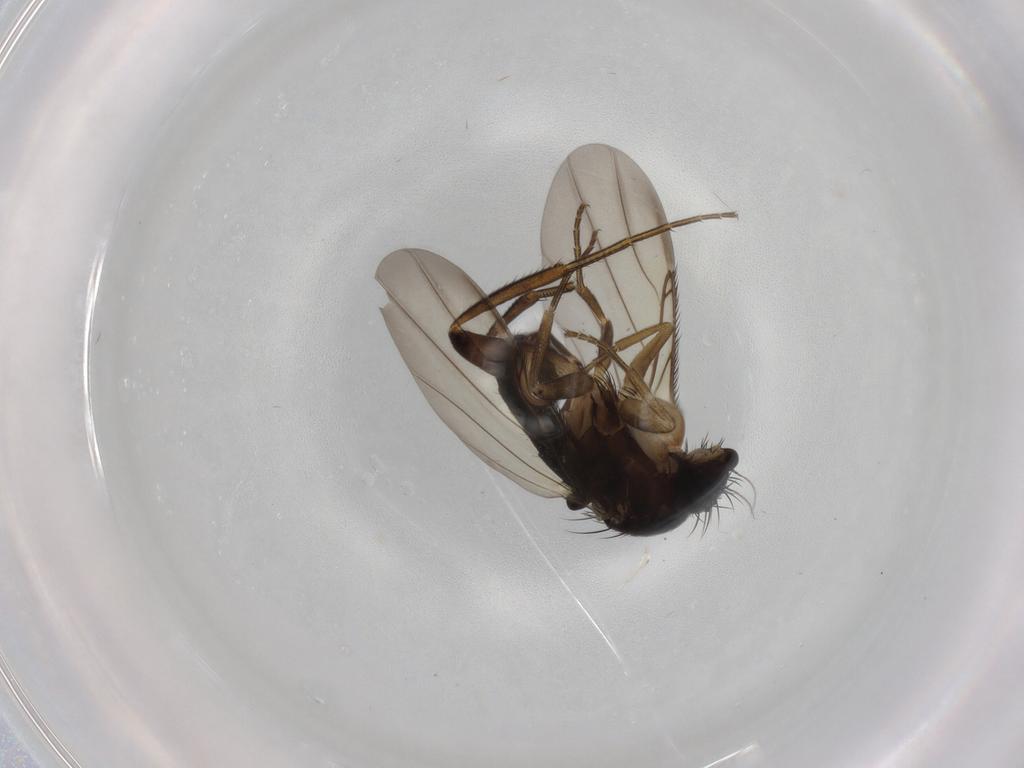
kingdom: Animalia
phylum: Arthropoda
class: Insecta
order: Diptera
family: Phoridae
